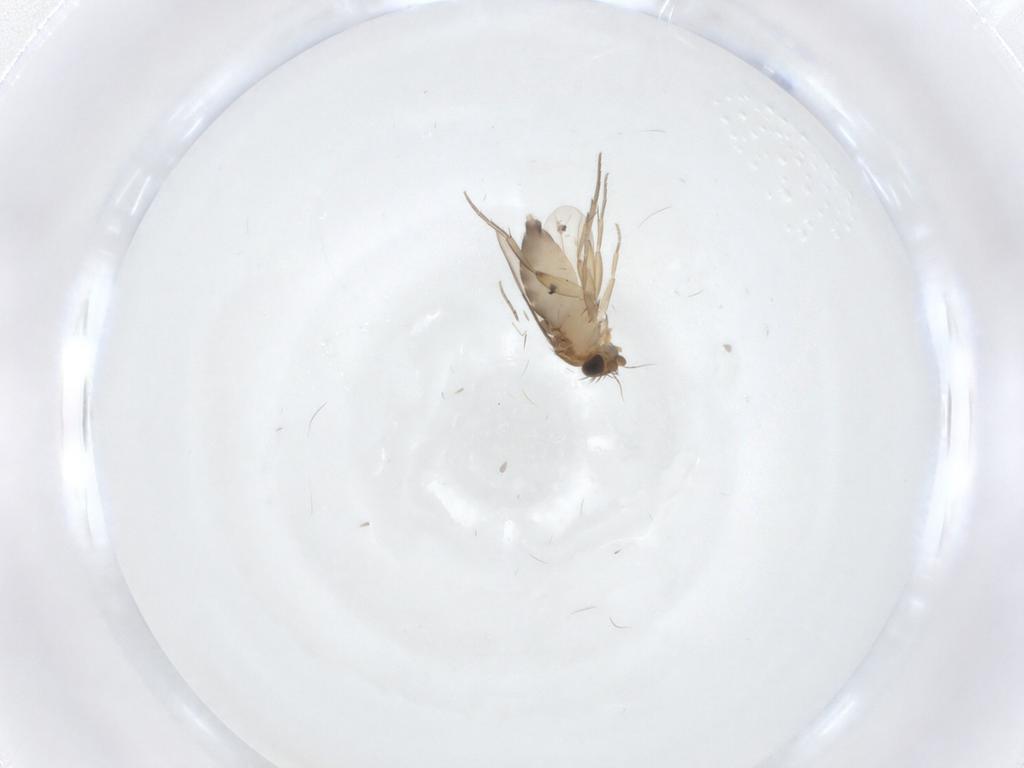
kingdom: Animalia
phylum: Arthropoda
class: Insecta
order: Diptera
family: Phoridae
